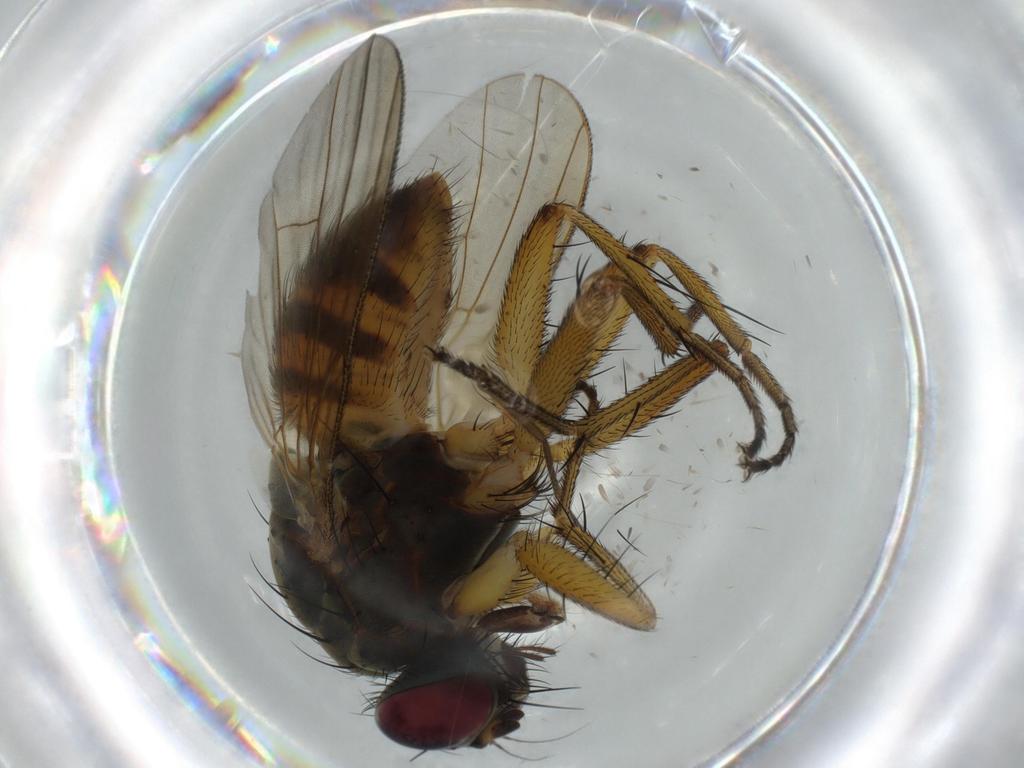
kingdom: Animalia
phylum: Arthropoda
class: Insecta
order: Diptera
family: Muscidae
